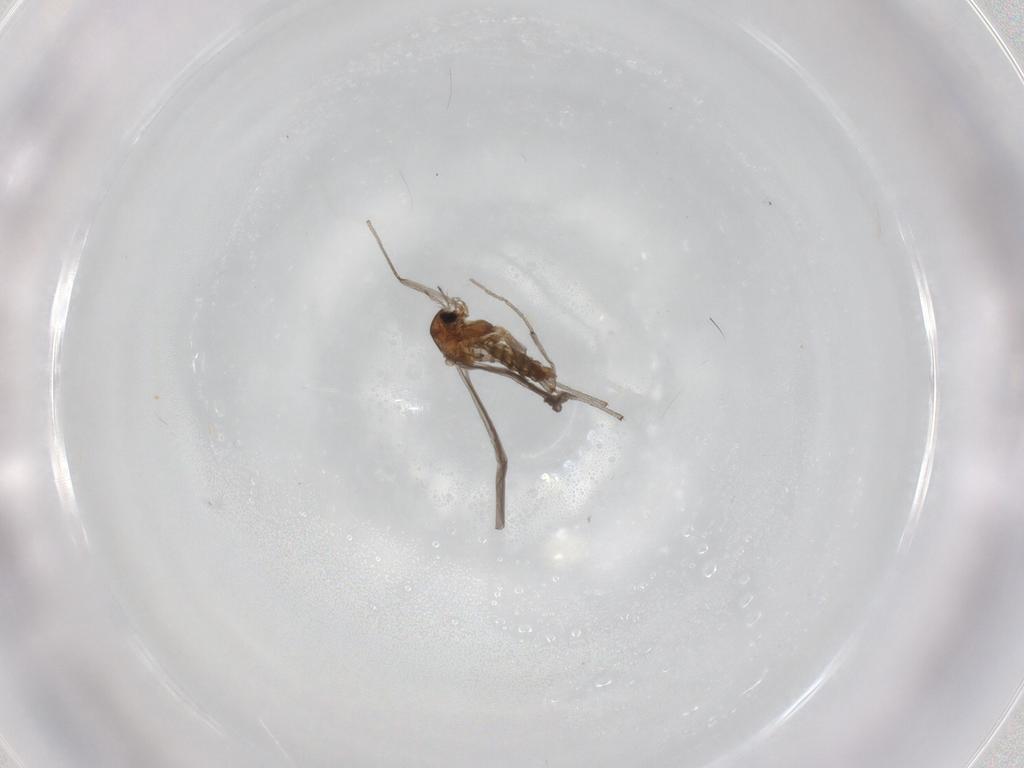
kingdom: Animalia
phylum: Arthropoda
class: Insecta
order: Diptera
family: Chironomidae
